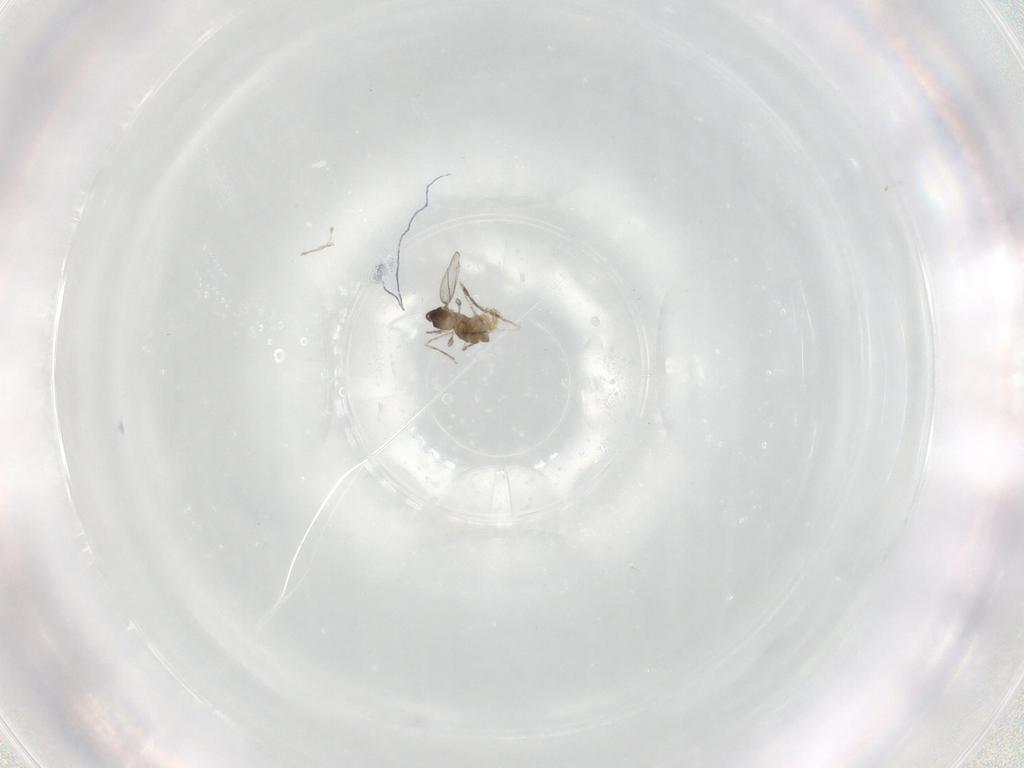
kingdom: Animalia
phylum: Arthropoda
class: Insecta
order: Diptera
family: Cecidomyiidae
